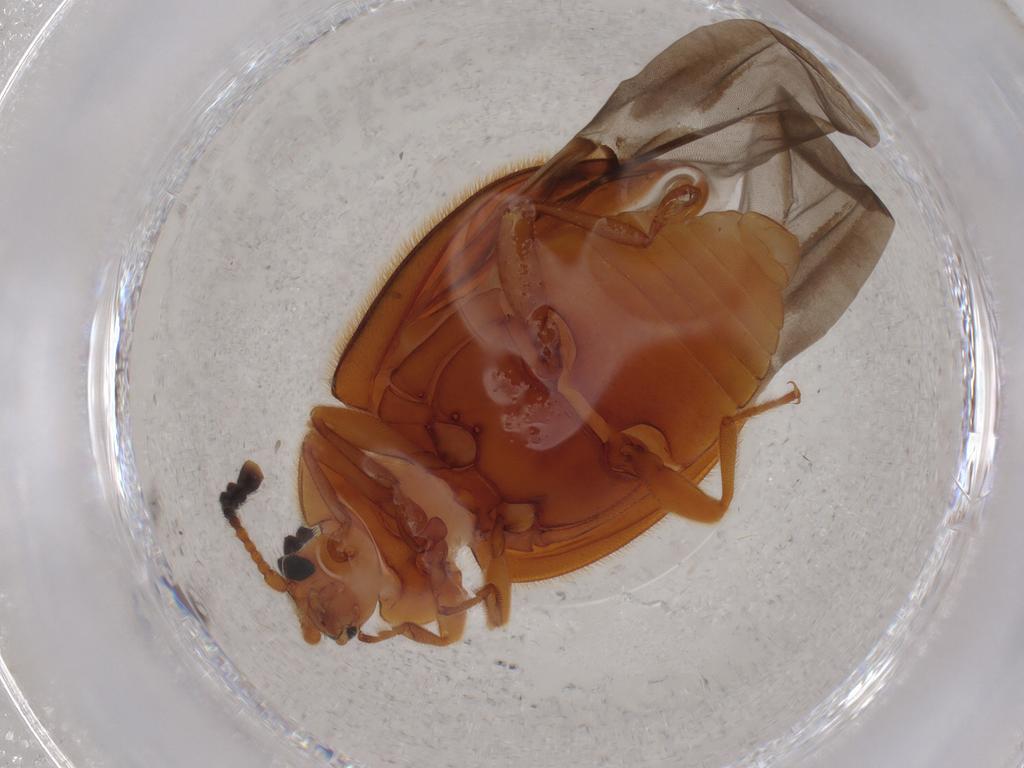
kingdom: Animalia
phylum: Arthropoda
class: Insecta
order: Coleoptera
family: Endomychidae
